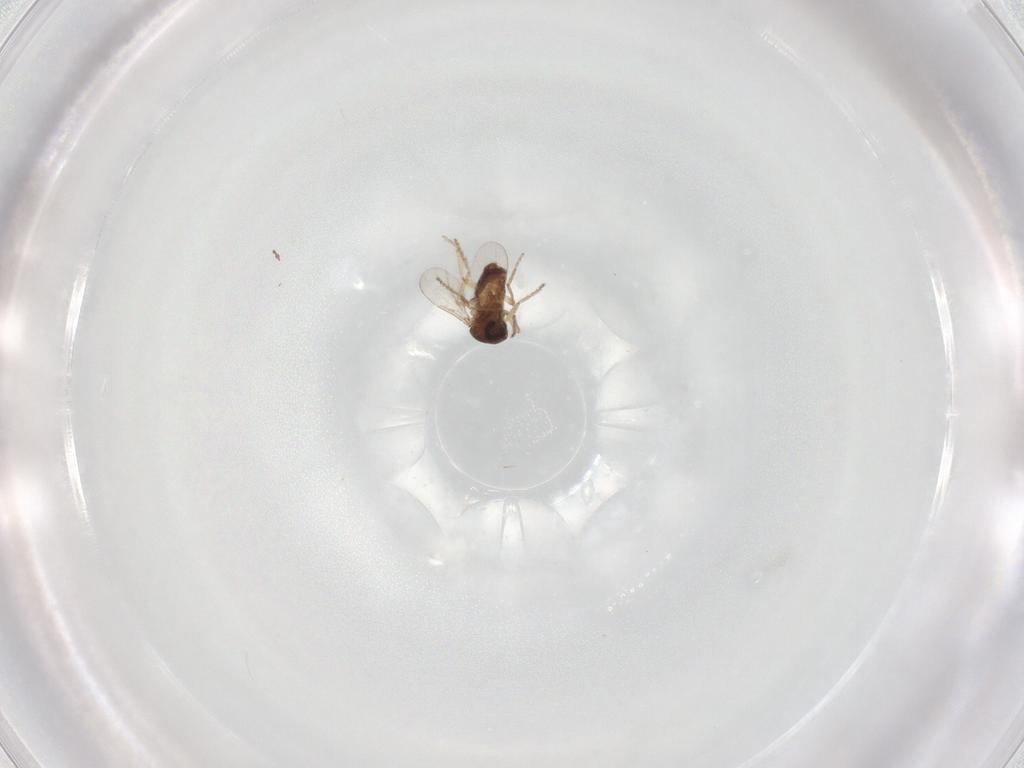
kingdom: Animalia
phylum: Arthropoda
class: Insecta
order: Diptera
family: Ceratopogonidae
